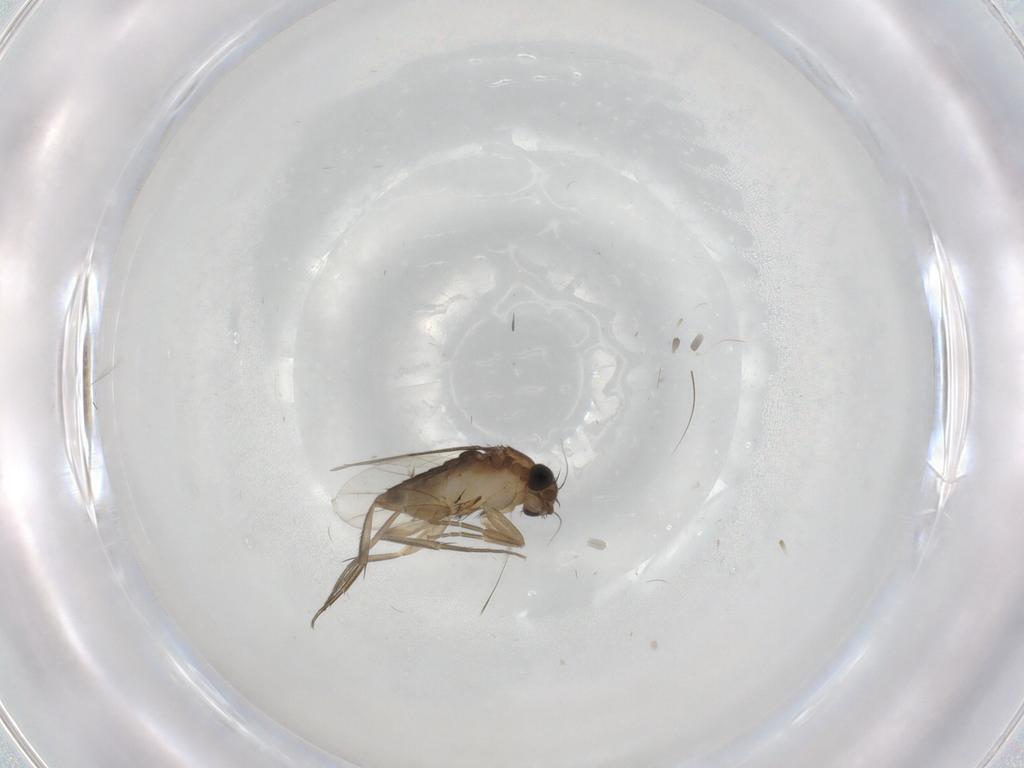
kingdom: Animalia
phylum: Arthropoda
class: Insecta
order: Diptera
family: Phoridae
